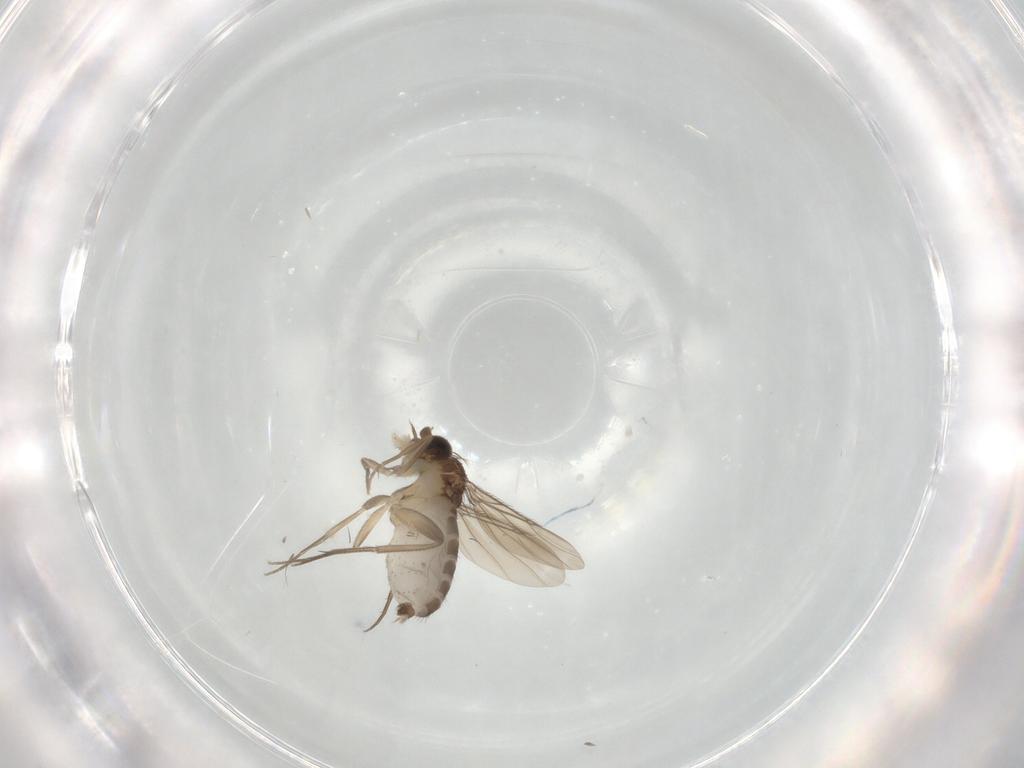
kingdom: Animalia
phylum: Arthropoda
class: Insecta
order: Diptera
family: Phoridae
